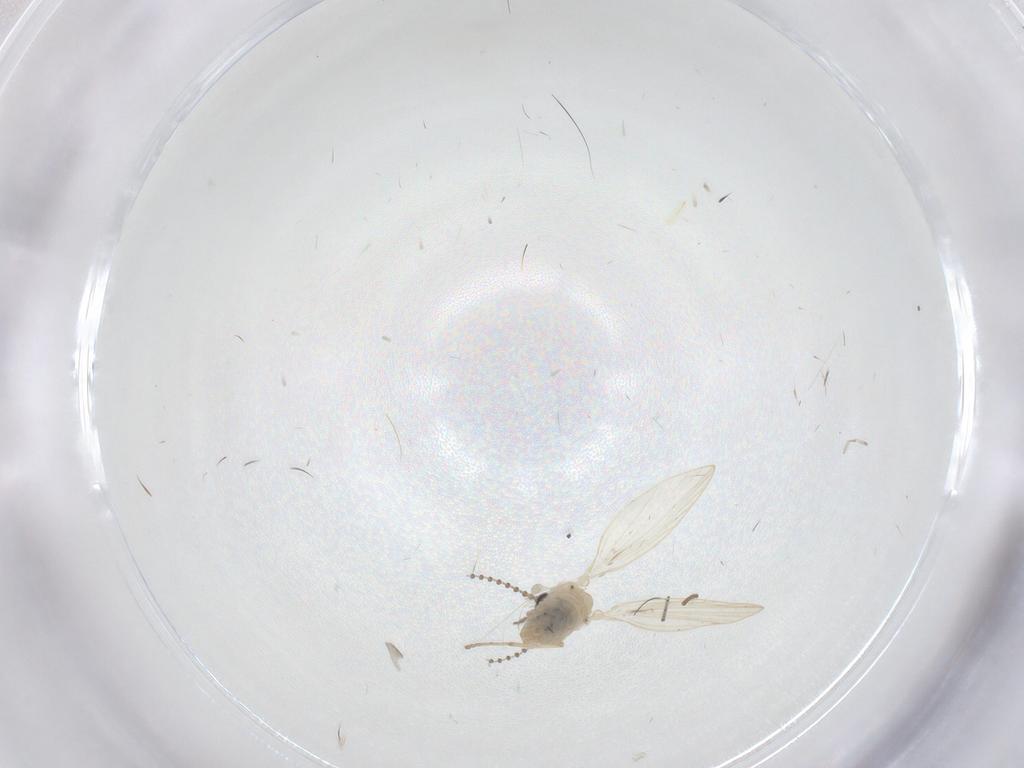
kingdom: Animalia
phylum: Arthropoda
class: Insecta
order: Diptera
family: Psychodidae
